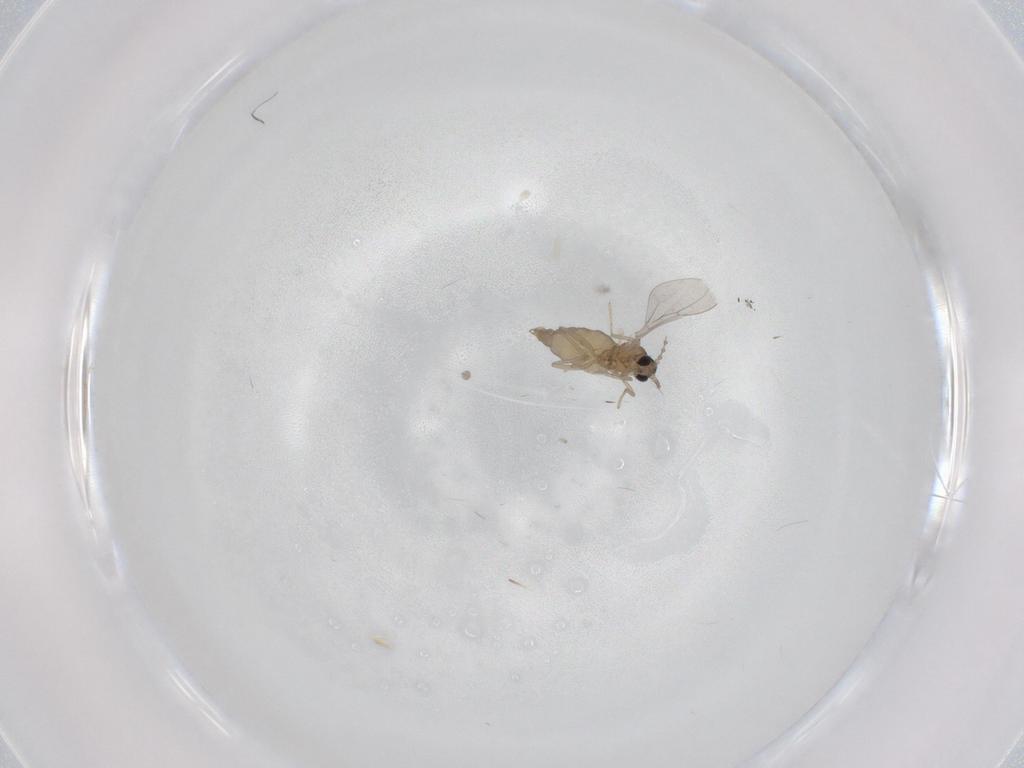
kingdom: Animalia
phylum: Arthropoda
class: Insecta
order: Diptera
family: Cecidomyiidae
